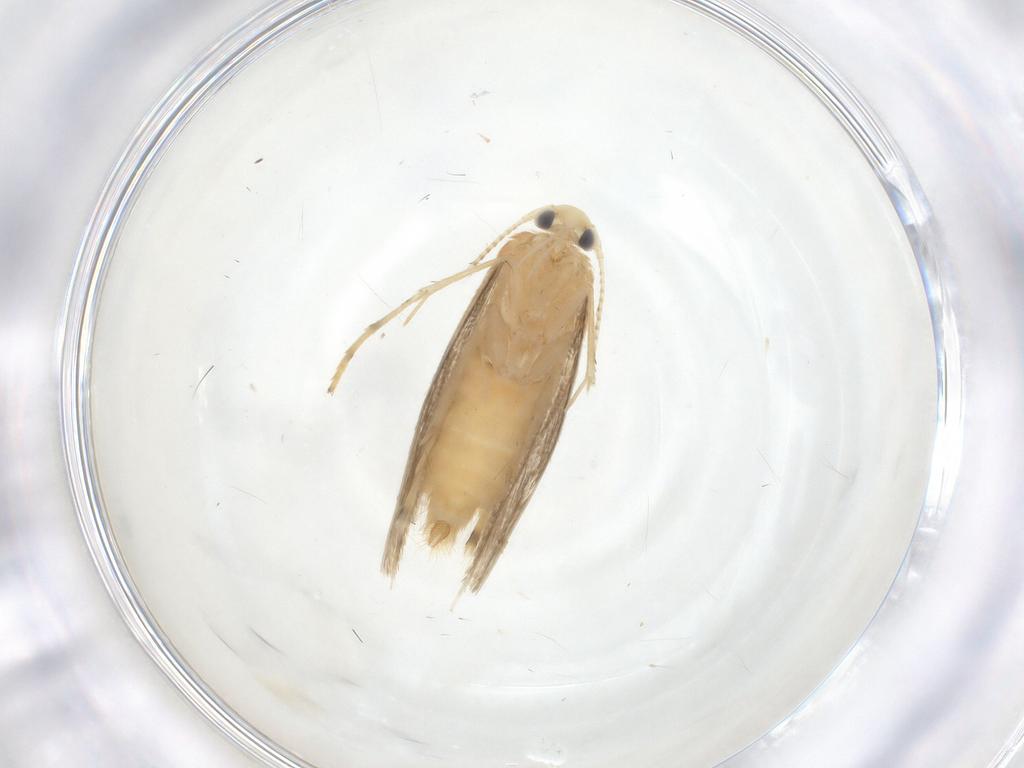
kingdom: Animalia
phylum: Arthropoda
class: Insecta
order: Lepidoptera
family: Gracillariidae
